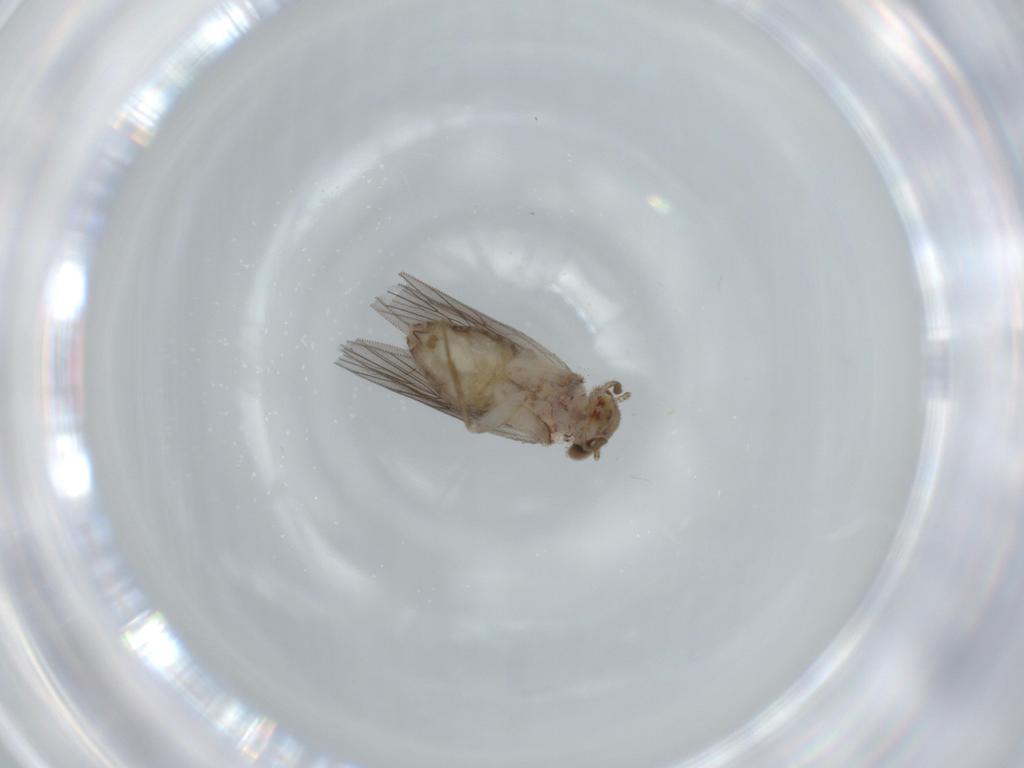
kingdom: Animalia
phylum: Arthropoda
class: Insecta
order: Psocodea
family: Lepidopsocidae
